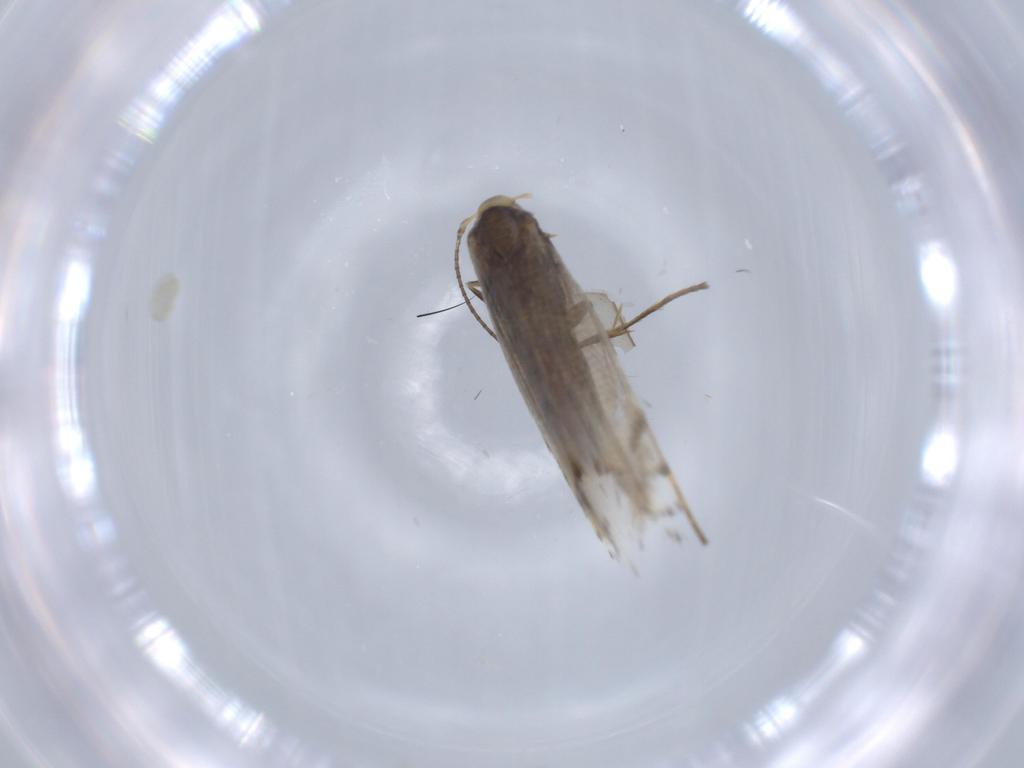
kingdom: Animalia
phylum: Arthropoda
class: Insecta
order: Lepidoptera
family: Gracillariidae
